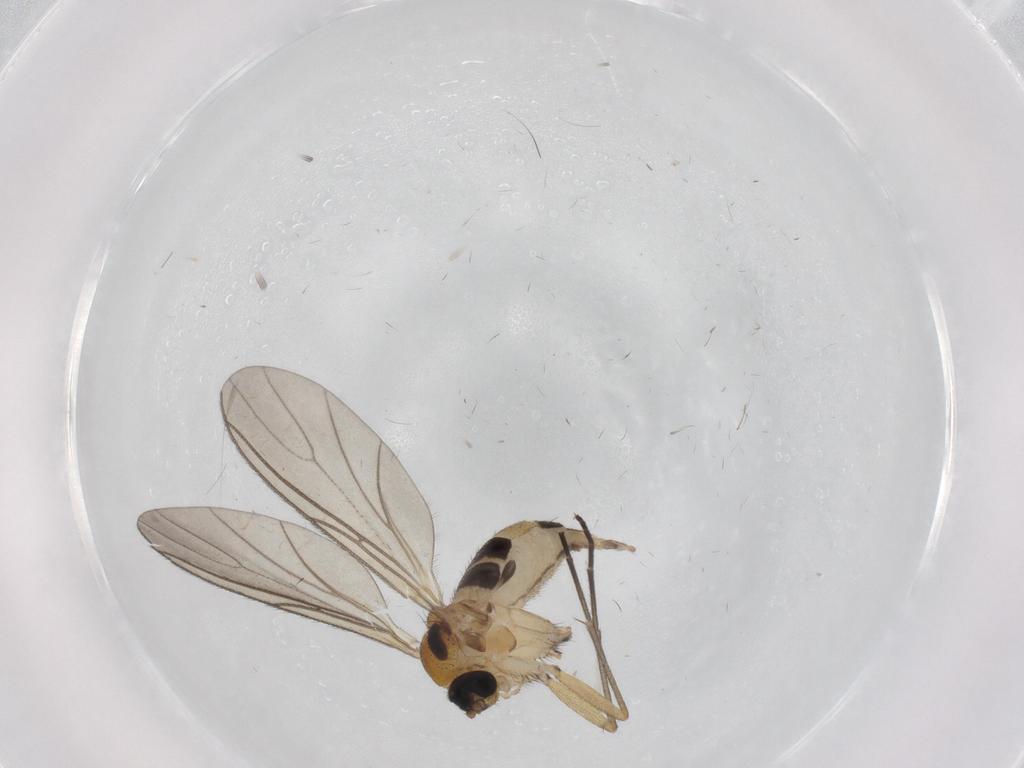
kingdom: Animalia
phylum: Arthropoda
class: Insecta
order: Diptera
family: Sciaridae
